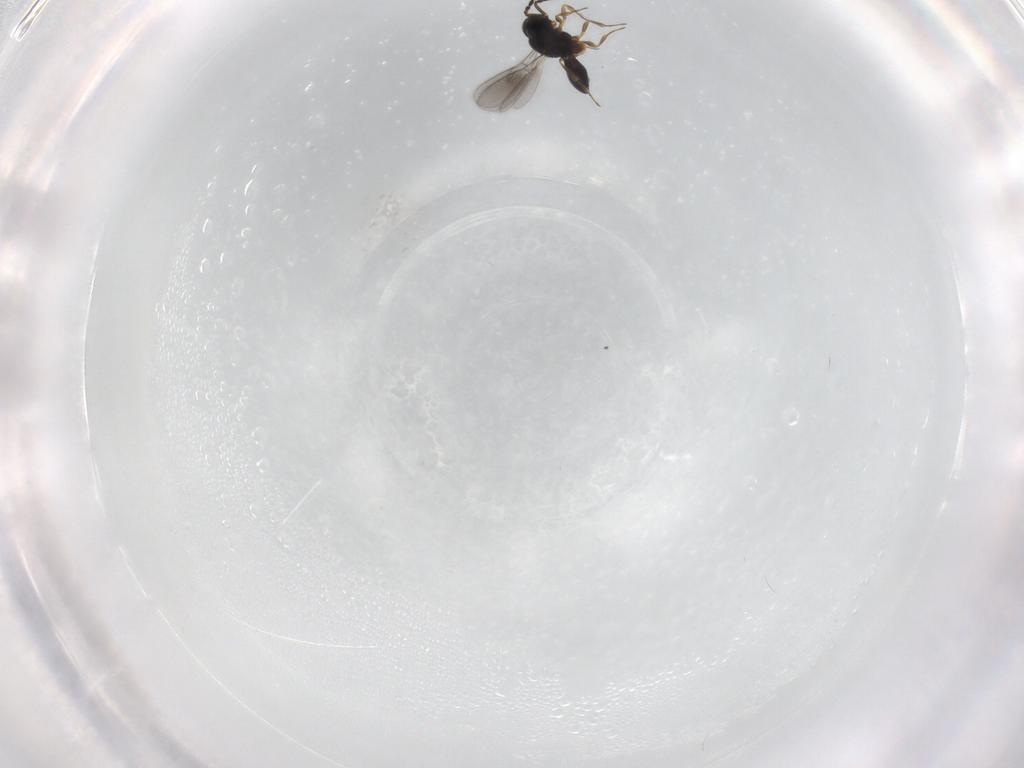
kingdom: Animalia
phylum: Arthropoda
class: Insecta
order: Hymenoptera
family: Scelionidae
